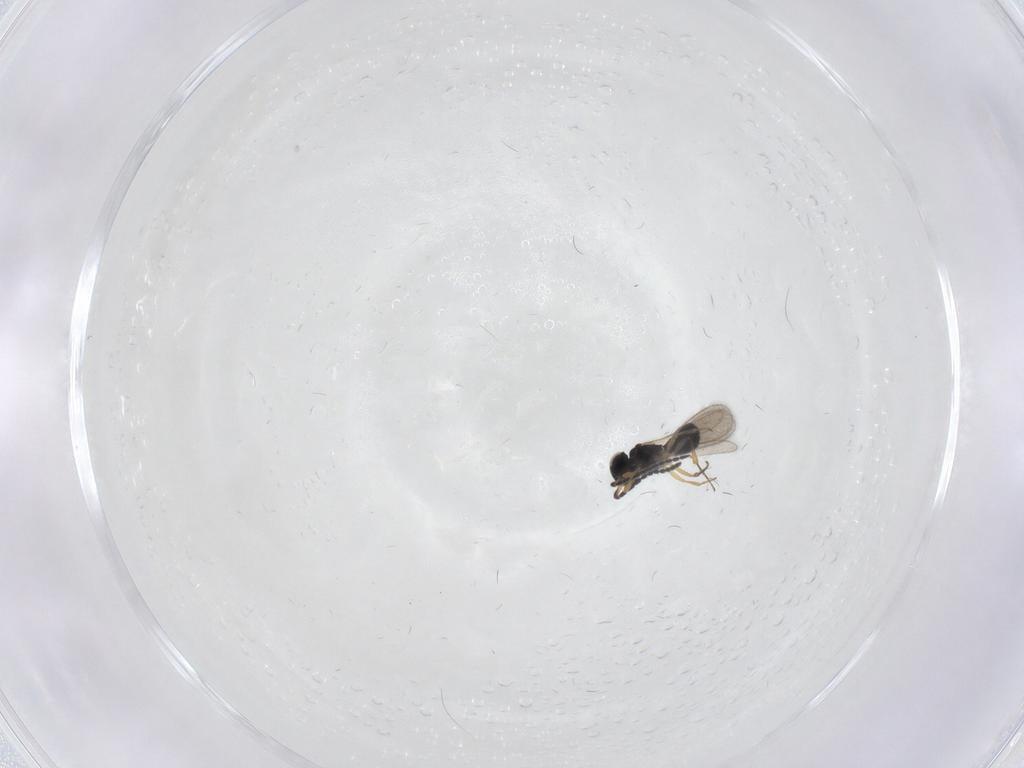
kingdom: Animalia
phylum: Arthropoda
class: Insecta
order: Hymenoptera
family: Scelionidae
